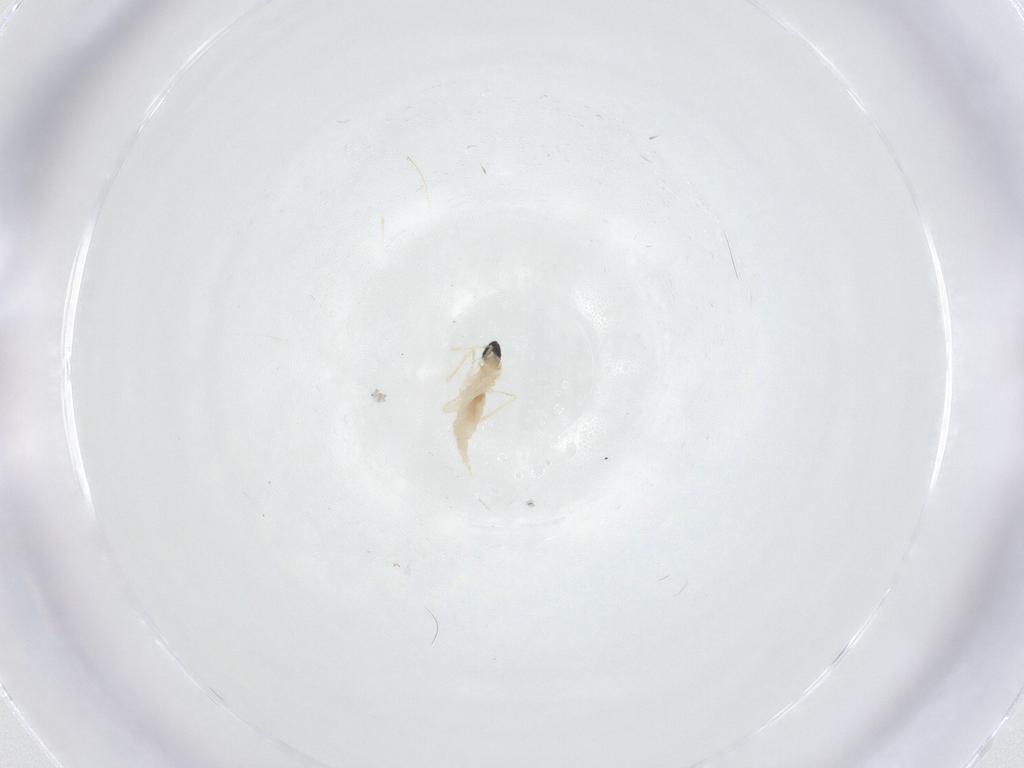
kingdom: Animalia
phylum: Arthropoda
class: Insecta
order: Diptera
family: Cecidomyiidae
